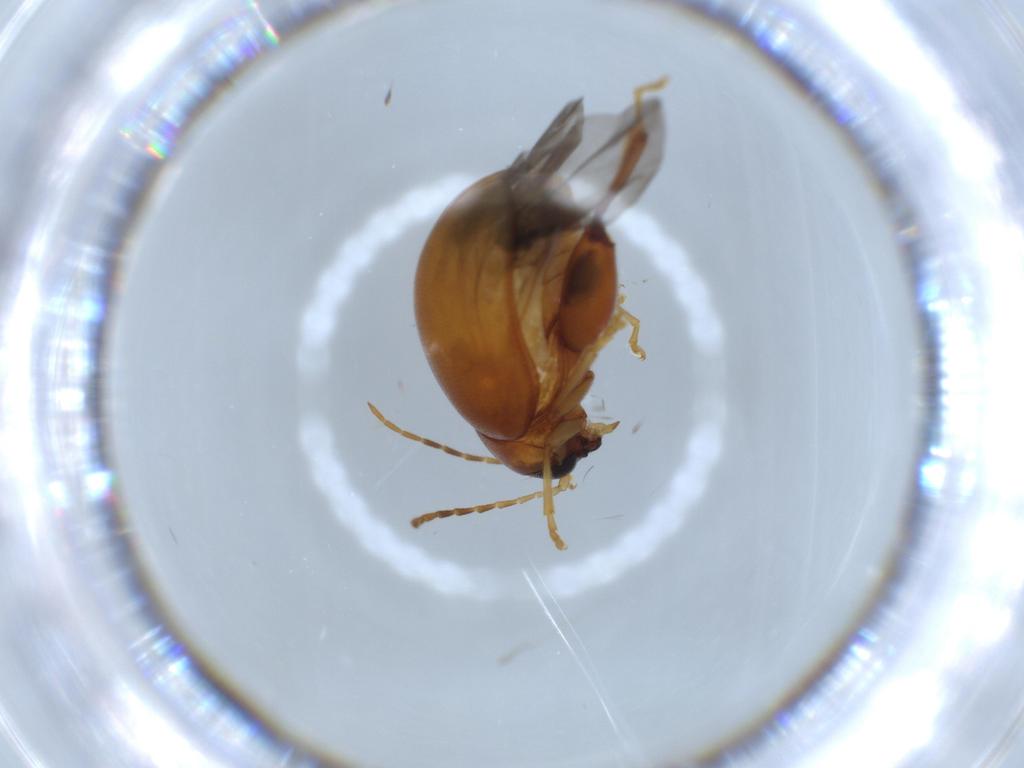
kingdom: Animalia
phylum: Arthropoda
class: Insecta
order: Coleoptera
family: Chrysomelidae
